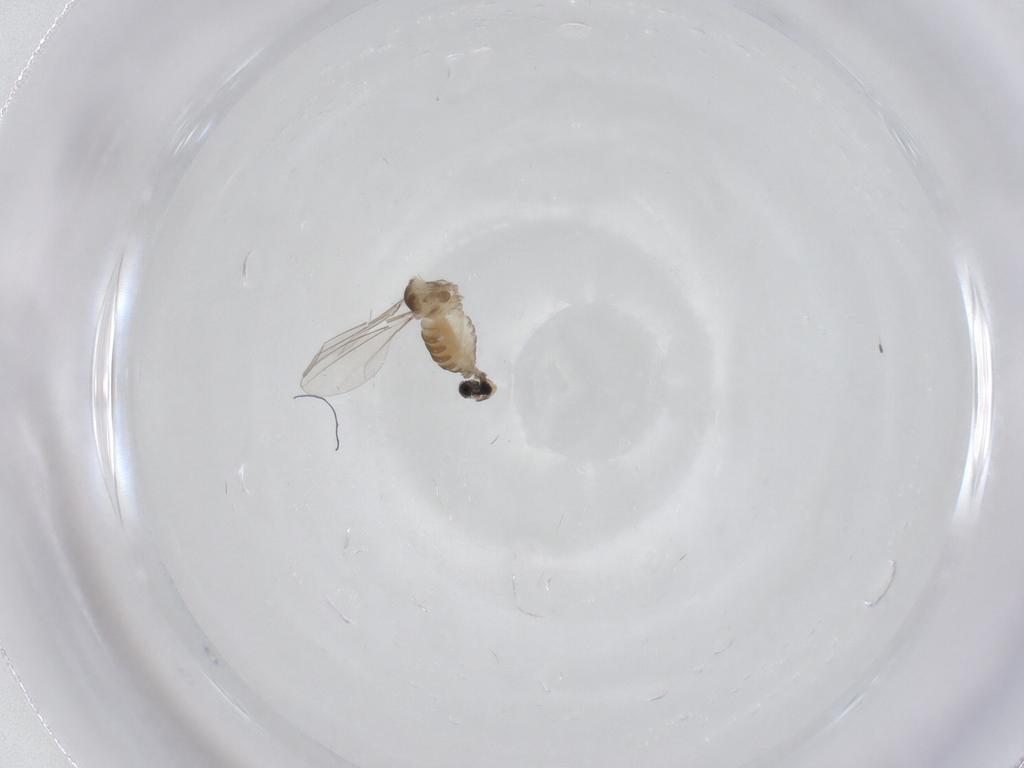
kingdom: Animalia
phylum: Arthropoda
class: Insecta
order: Diptera
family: Cecidomyiidae
